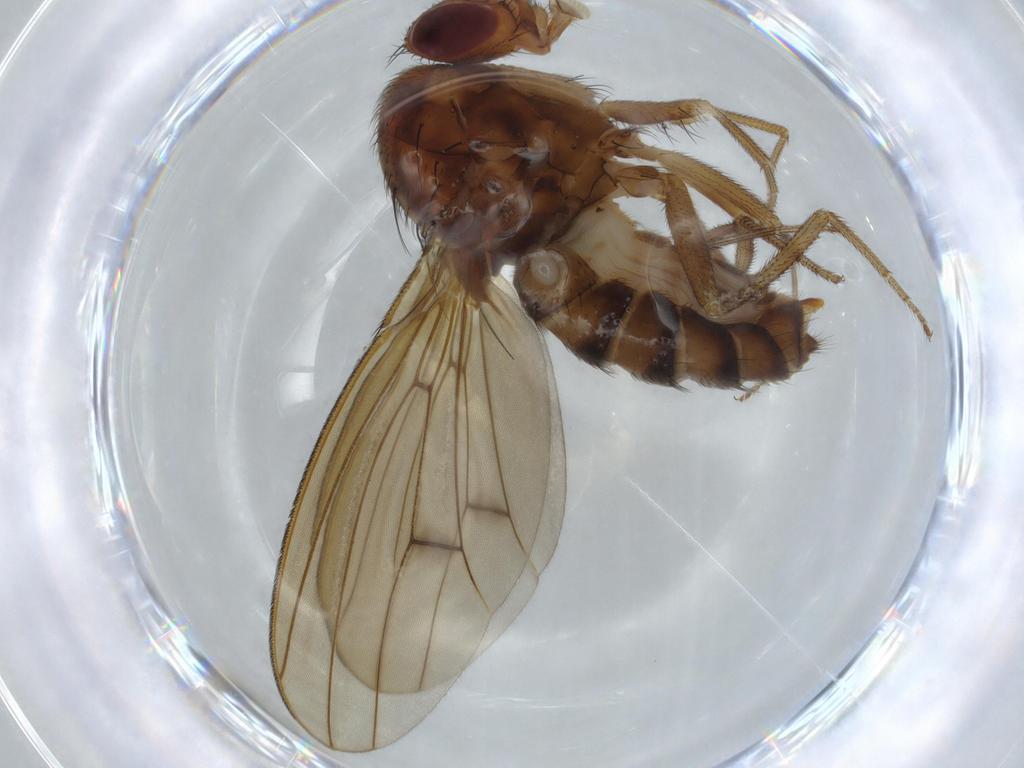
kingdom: Animalia
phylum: Arthropoda
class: Insecta
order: Diptera
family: Drosophilidae
